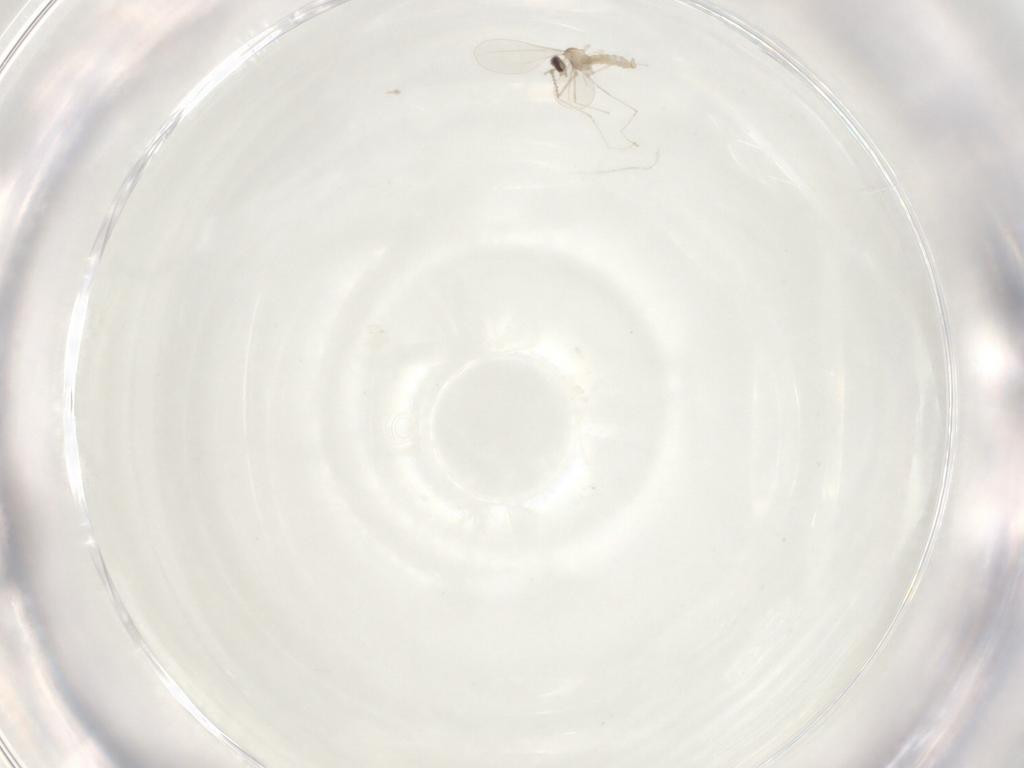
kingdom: Animalia
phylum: Arthropoda
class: Insecta
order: Diptera
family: Cecidomyiidae
